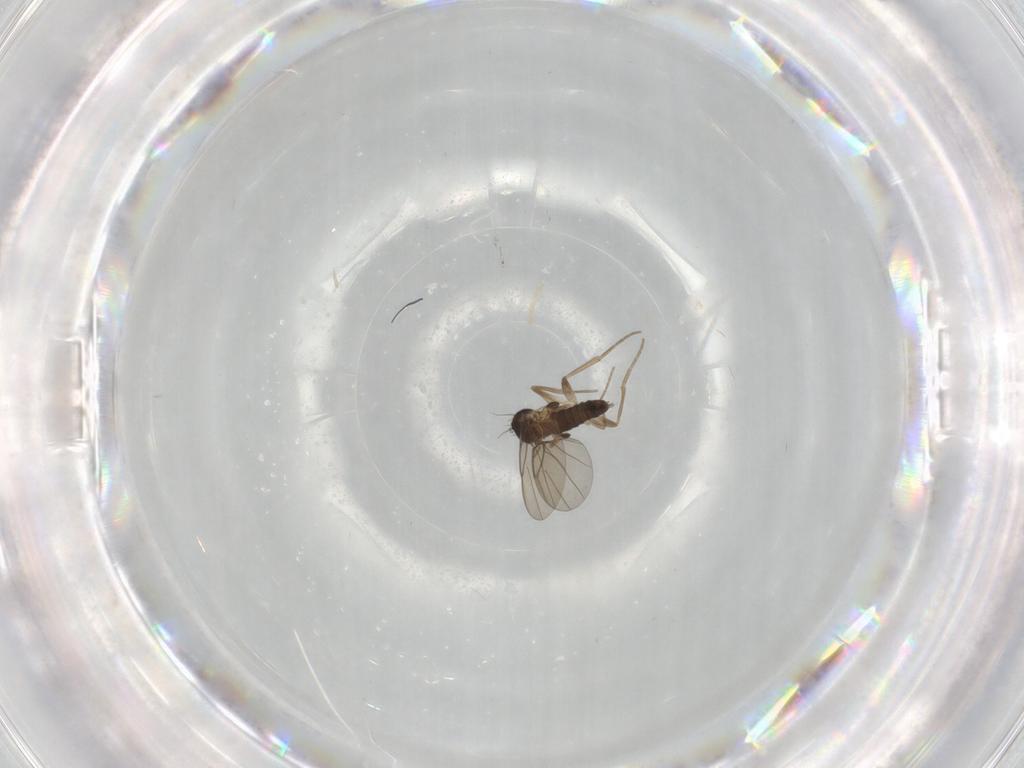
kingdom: Animalia
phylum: Arthropoda
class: Insecta
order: Diptera
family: Phoridae
